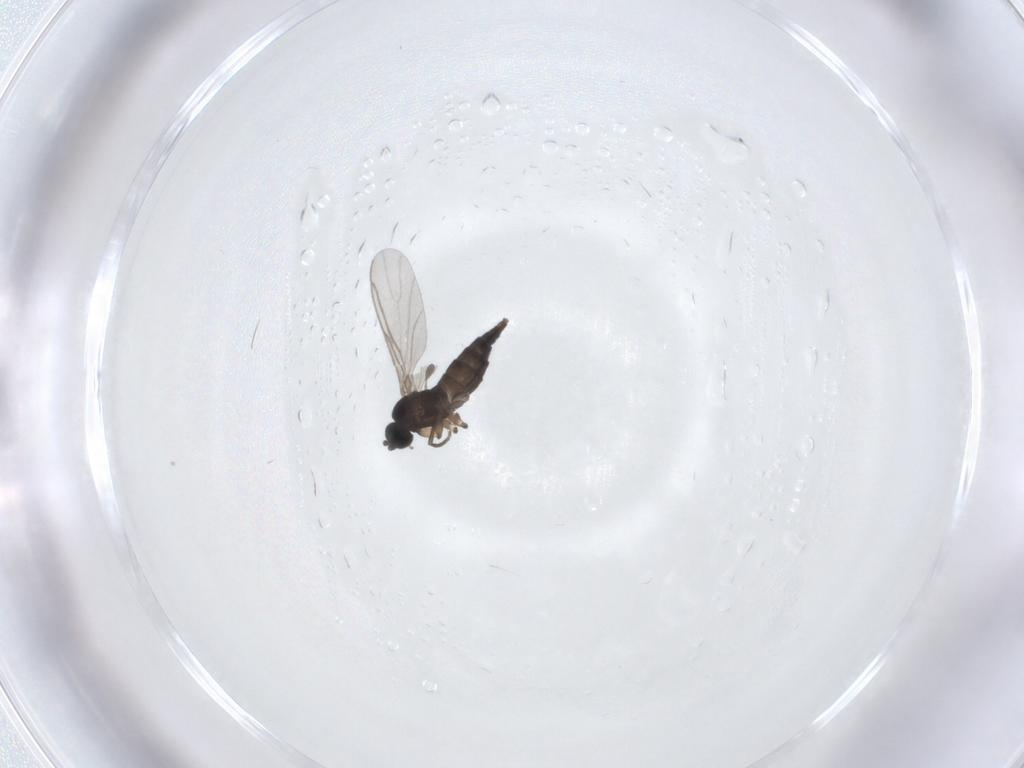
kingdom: Animalia
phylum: Arthropoda
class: Insecta
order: Diptera
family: Sciaridae
